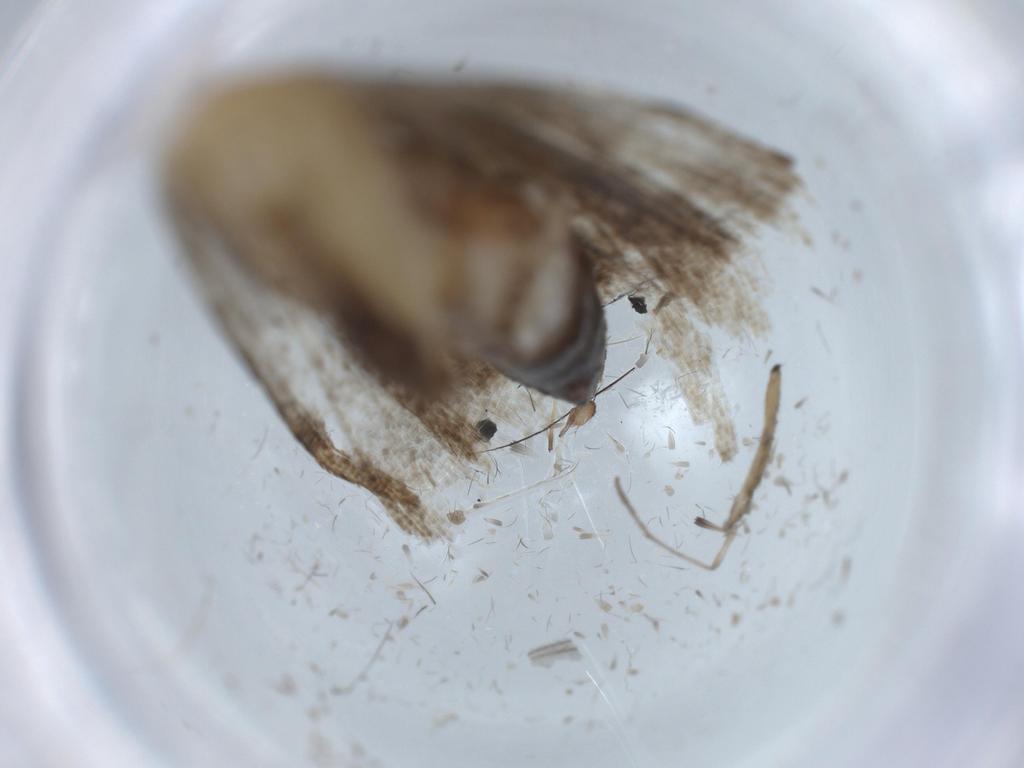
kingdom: Animalia
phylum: Arthropoda
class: Insecta
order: Lepidoptera
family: Erebidae
